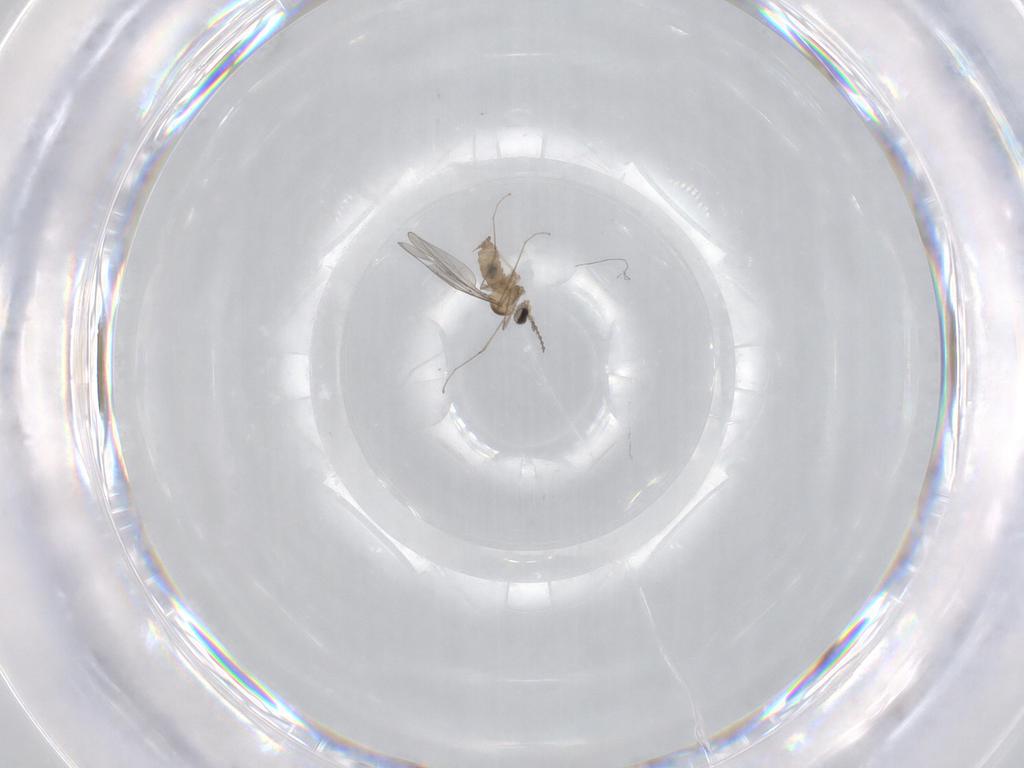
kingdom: Animalia
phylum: Arthropoda
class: Insecta
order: Diptera
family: Cecidomyiidae
